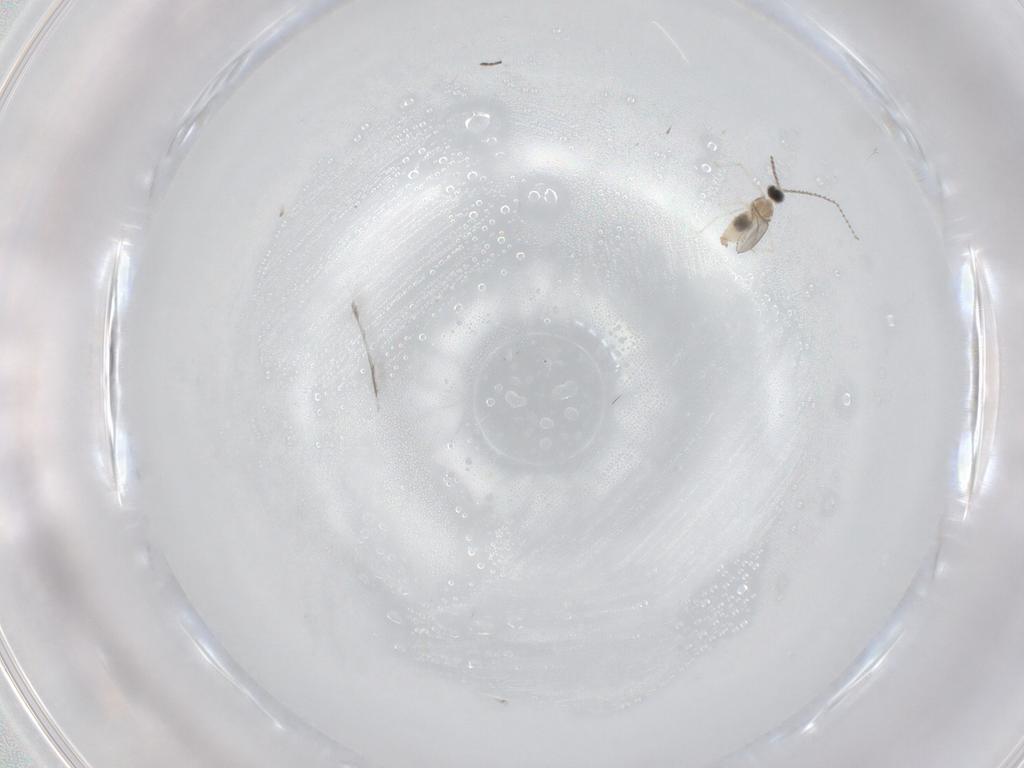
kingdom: Animalia
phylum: Arthropoda
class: Insecta
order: Diptera
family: Cecidomyiidae
